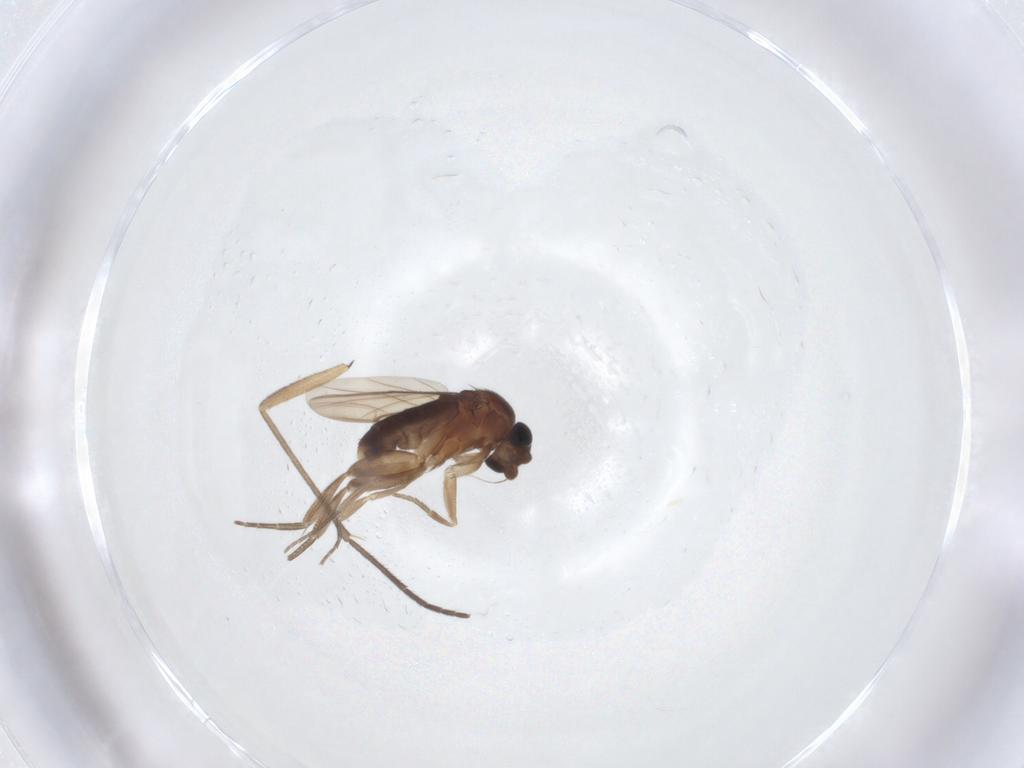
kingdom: Animalia
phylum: Arthropoda
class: Insecta
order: Diptera
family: Phoridae
